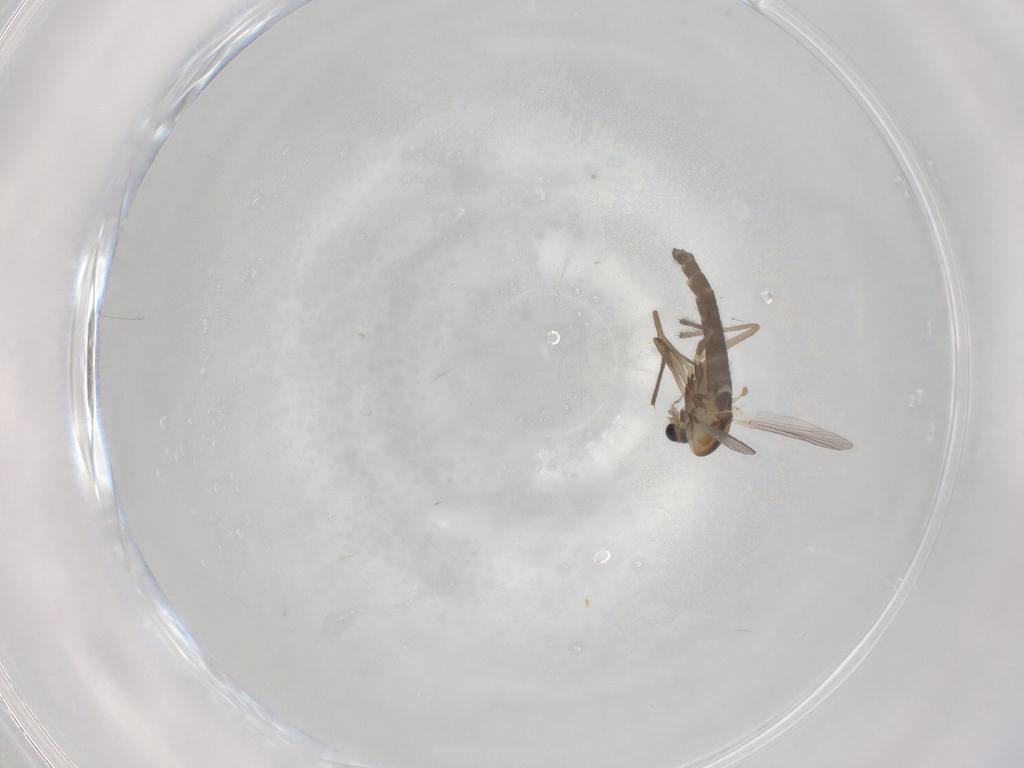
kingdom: Animalia
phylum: Arthropoda
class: Insecta
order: Diptera
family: Chironomidae
